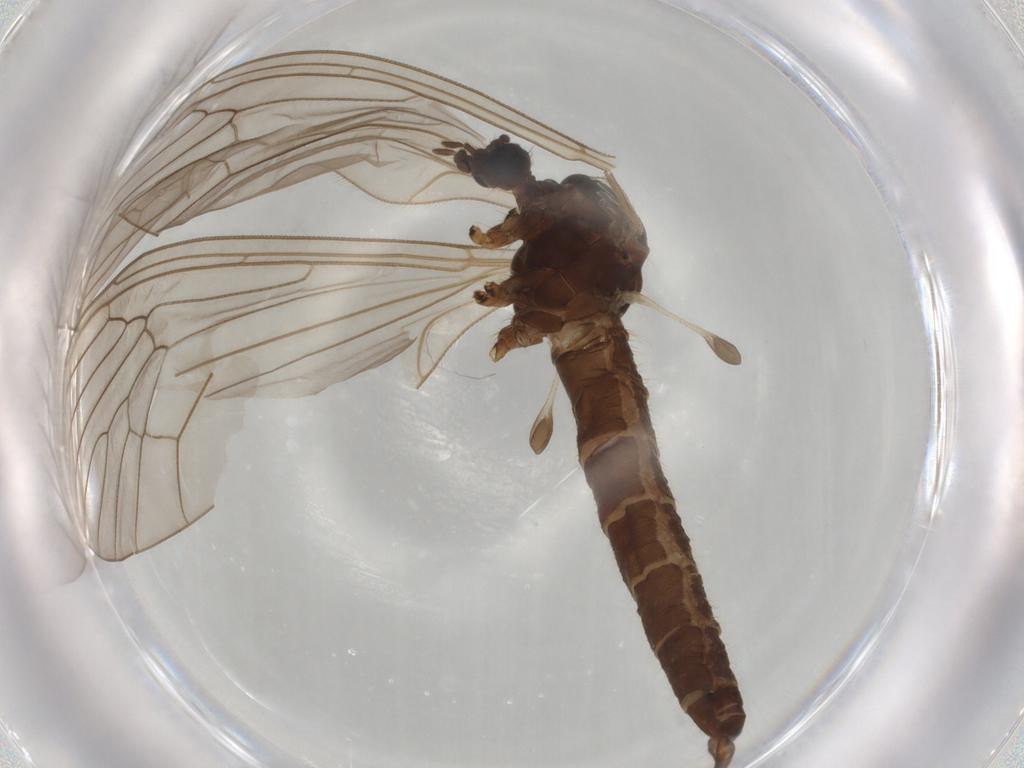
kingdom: Animalia
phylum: Arthropoda
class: Insecta
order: Diptera
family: Trichoceridae
